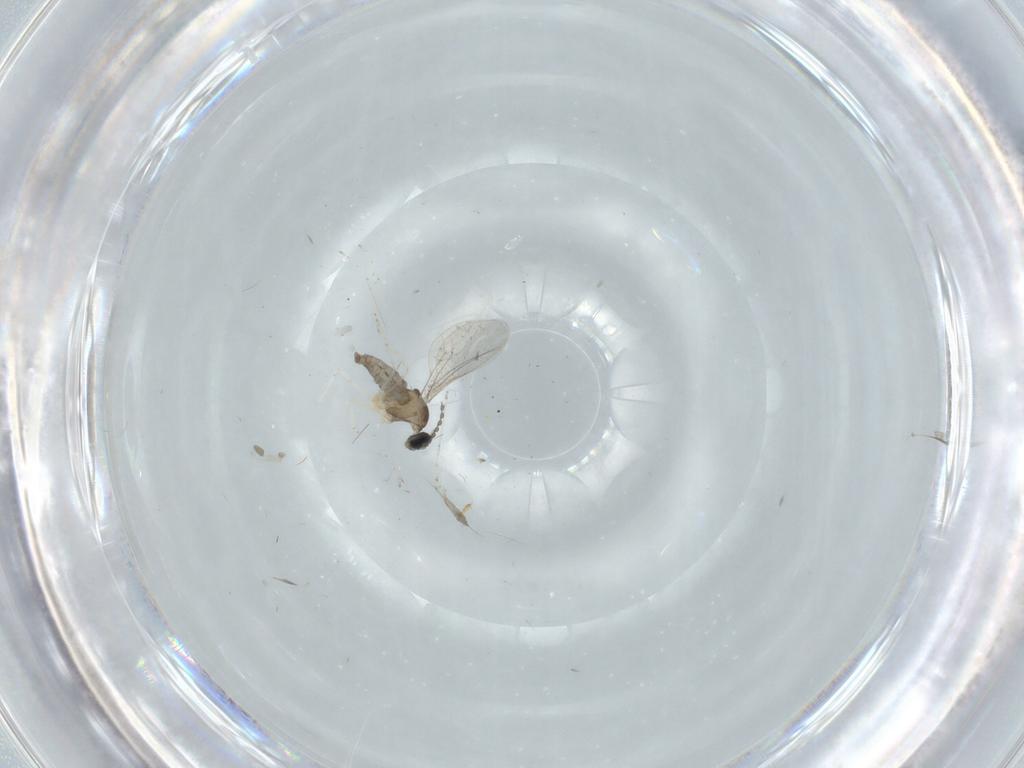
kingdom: Animalia
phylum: Arthropoda
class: Insecta
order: Diptera
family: Cecidomyiidae
